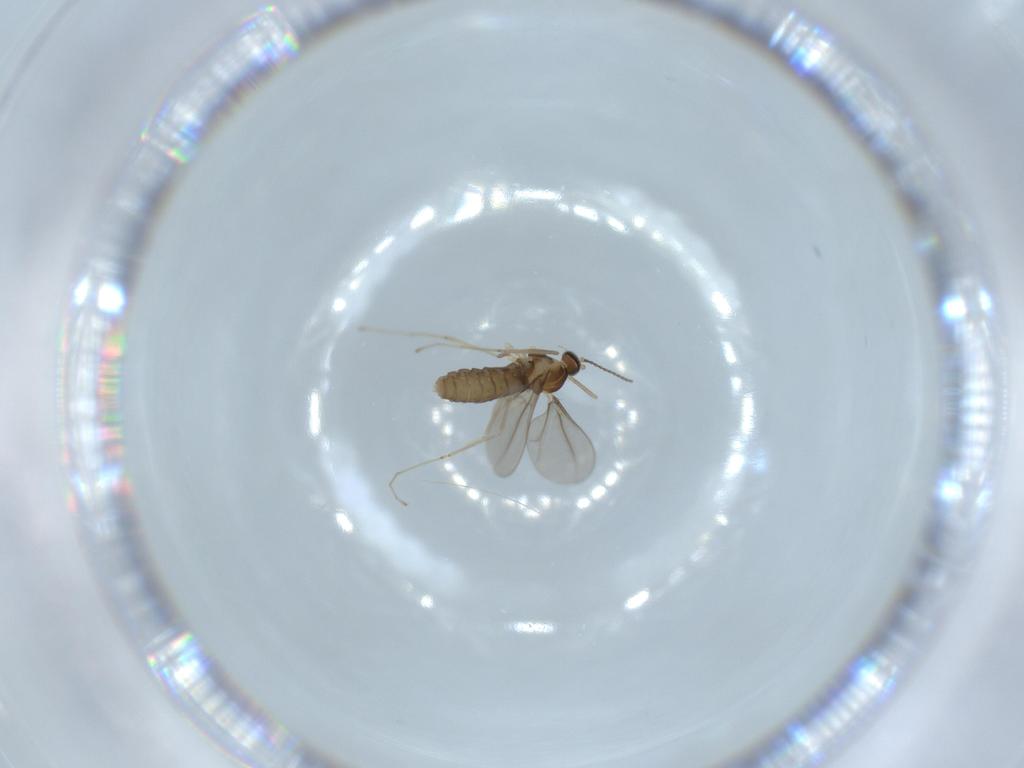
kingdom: Animalia
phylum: Arthropoda
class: Insecta
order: Diptera
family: Cecidomyiidae
